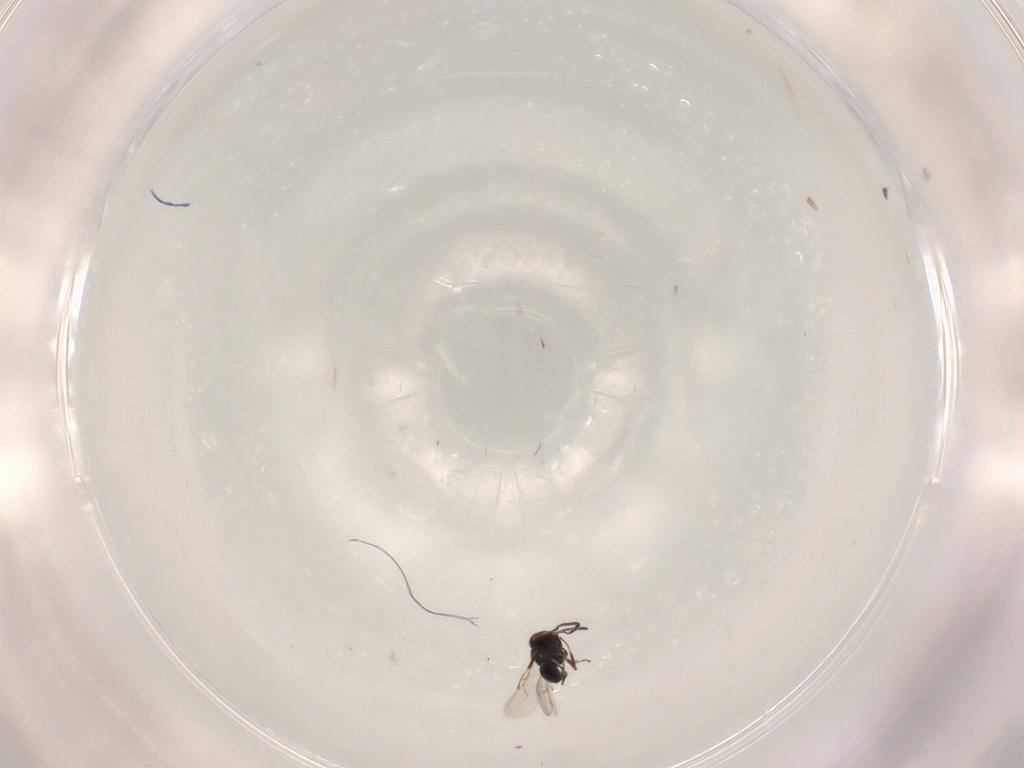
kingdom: Animalia
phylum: Arthropoda
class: Insecta
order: Hymenoptera
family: Scelionidae
